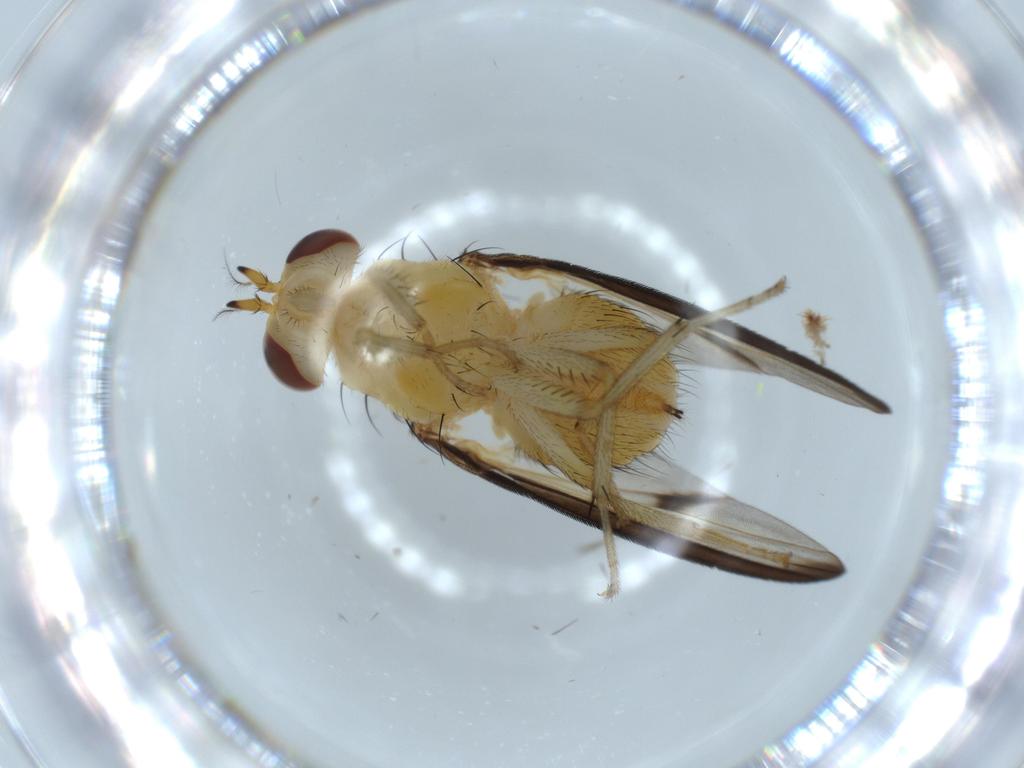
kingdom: Animalia
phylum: Arthropoda
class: Insecta
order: Diptera
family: Lauxaniidae
